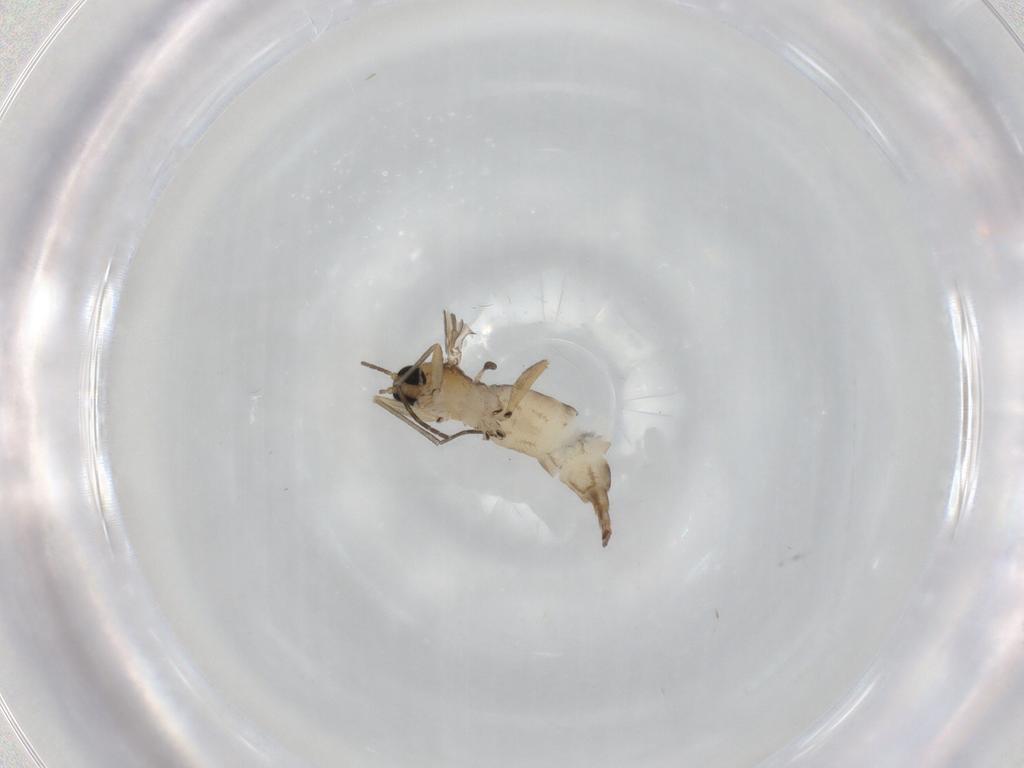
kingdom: Animalia
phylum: Arthropoda
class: Insecta
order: Diptera
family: Sciaridae
